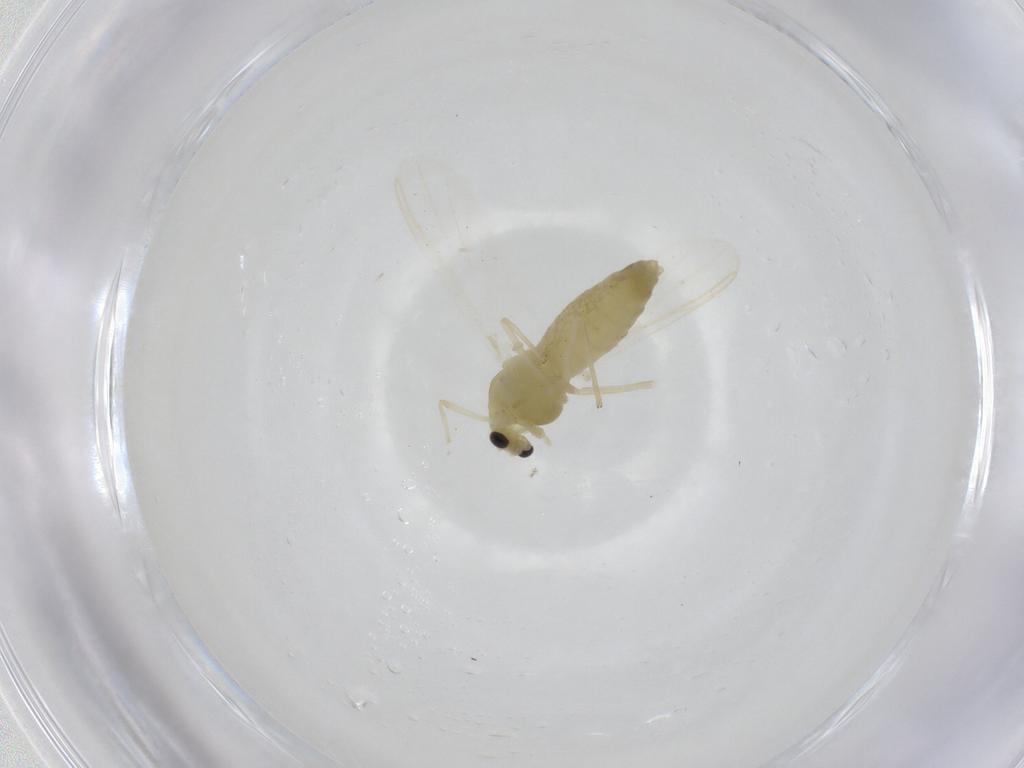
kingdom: Animalia
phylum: Arthropoda
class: Insecta
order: Diptera
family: Chironomidae
